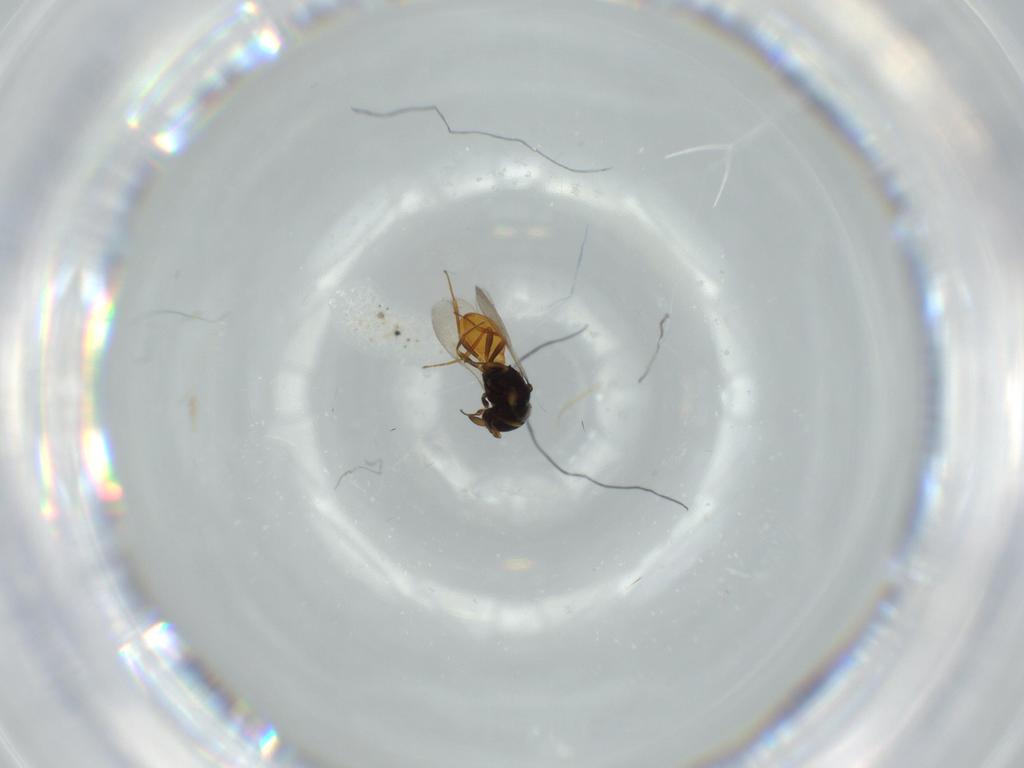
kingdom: Animalia
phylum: Arthropoda
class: Insecta
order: Hymenoptera
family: Scelionidae
